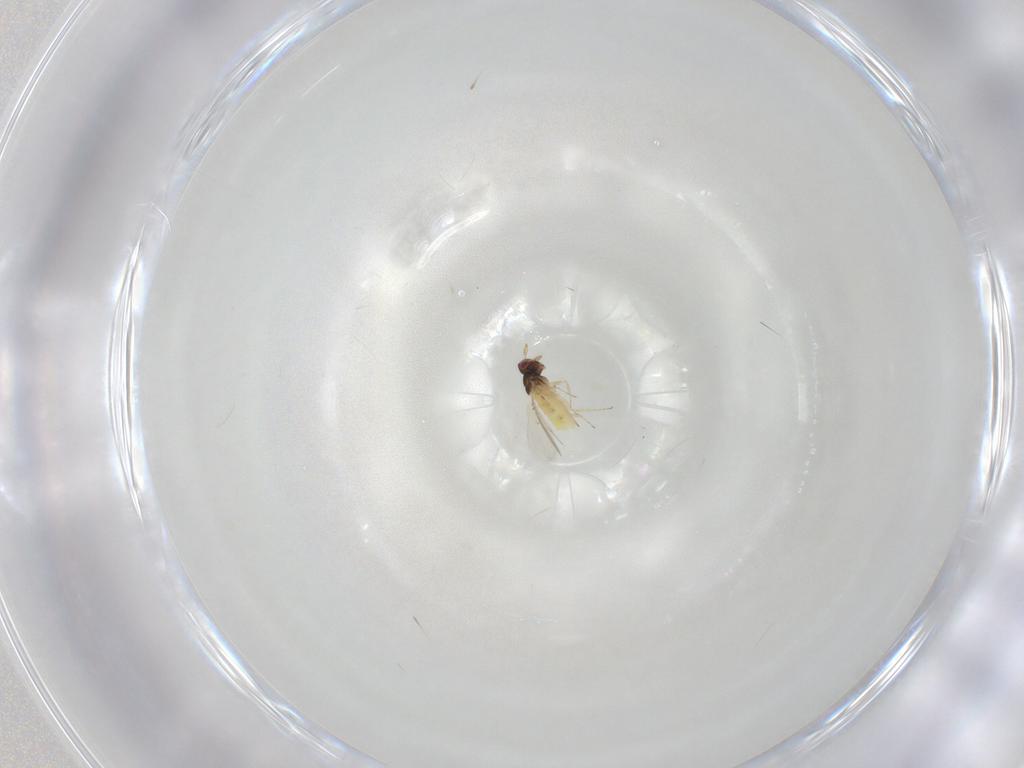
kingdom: Animalia
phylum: Arthropoda
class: Insecta
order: Hymenoptera
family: Trichogrammatidae
